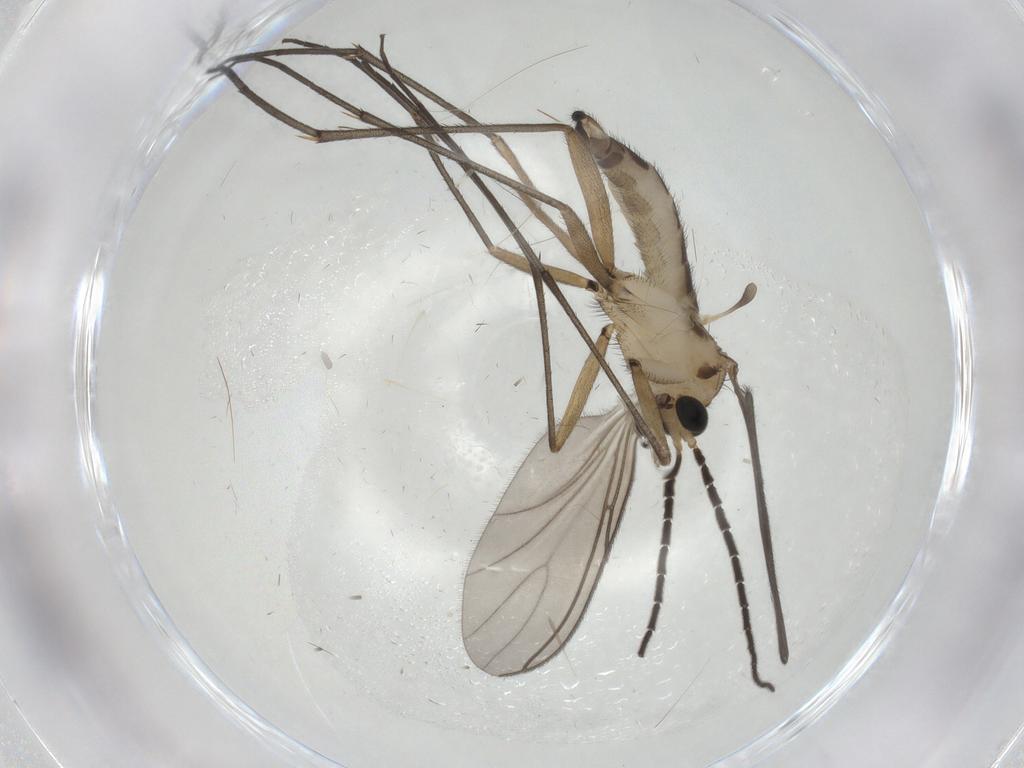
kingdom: Animalia
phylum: Arthropoda
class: Insecta
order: Diptera
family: Sciaridae
